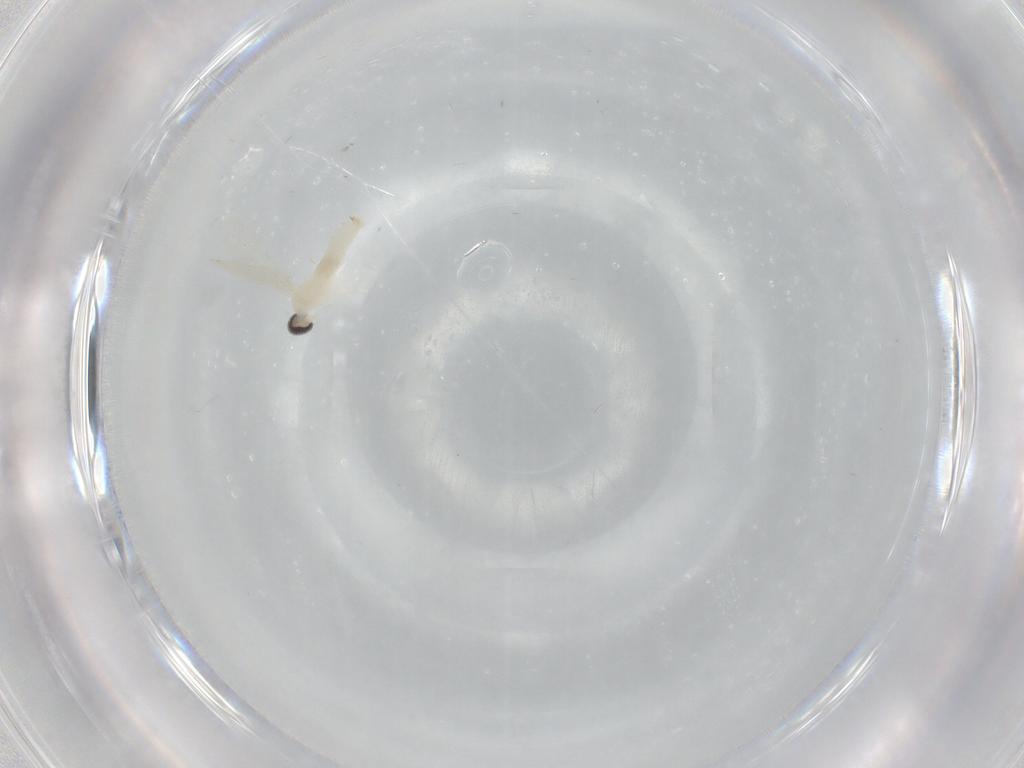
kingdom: Animalia
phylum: Arthropoda
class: Insecta
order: Diptera
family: Cecidomyiidae
